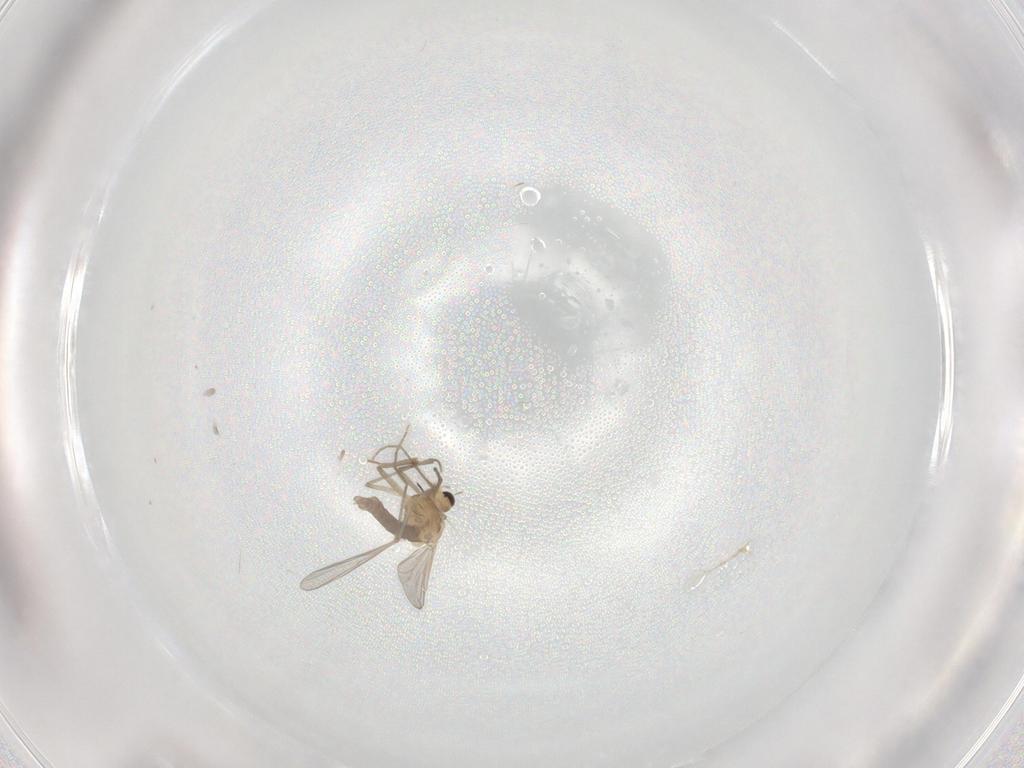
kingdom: Animalia
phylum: Arthropoda
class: Insecta
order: Diptera
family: Chironomidae
